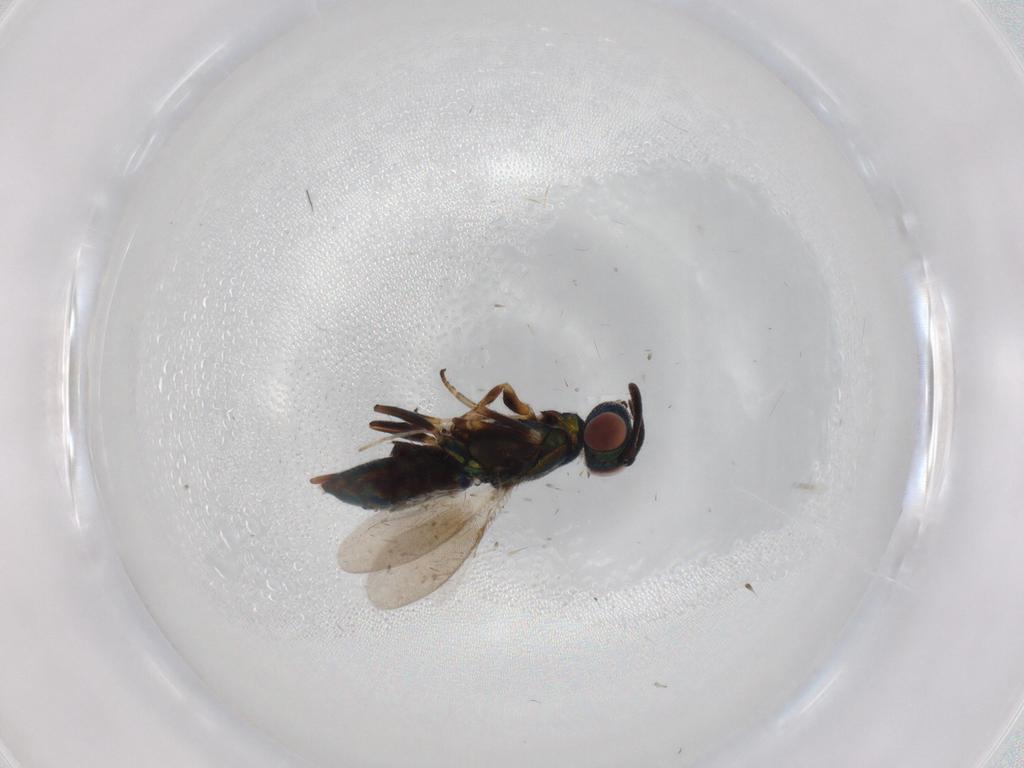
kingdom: Animalia
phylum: Arthropoda
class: Insecta
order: Hymenoptera
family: Eupelmidae
